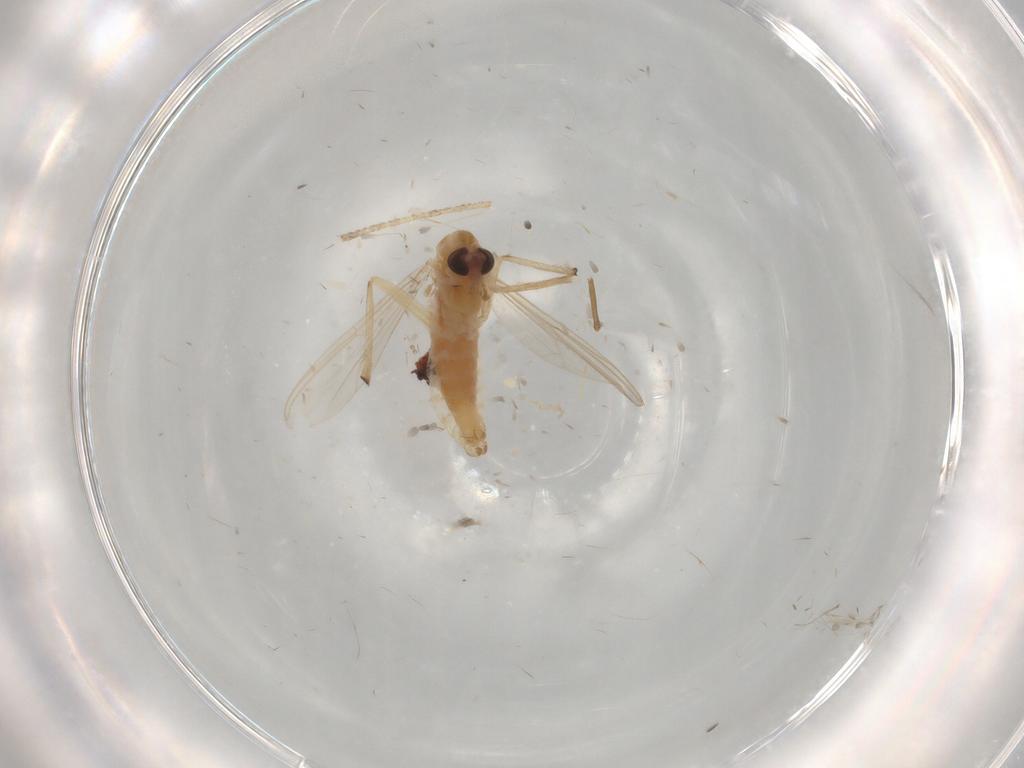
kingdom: Animalia
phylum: Arthropoda
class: Insecta
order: Diptera
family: Chironomidae
